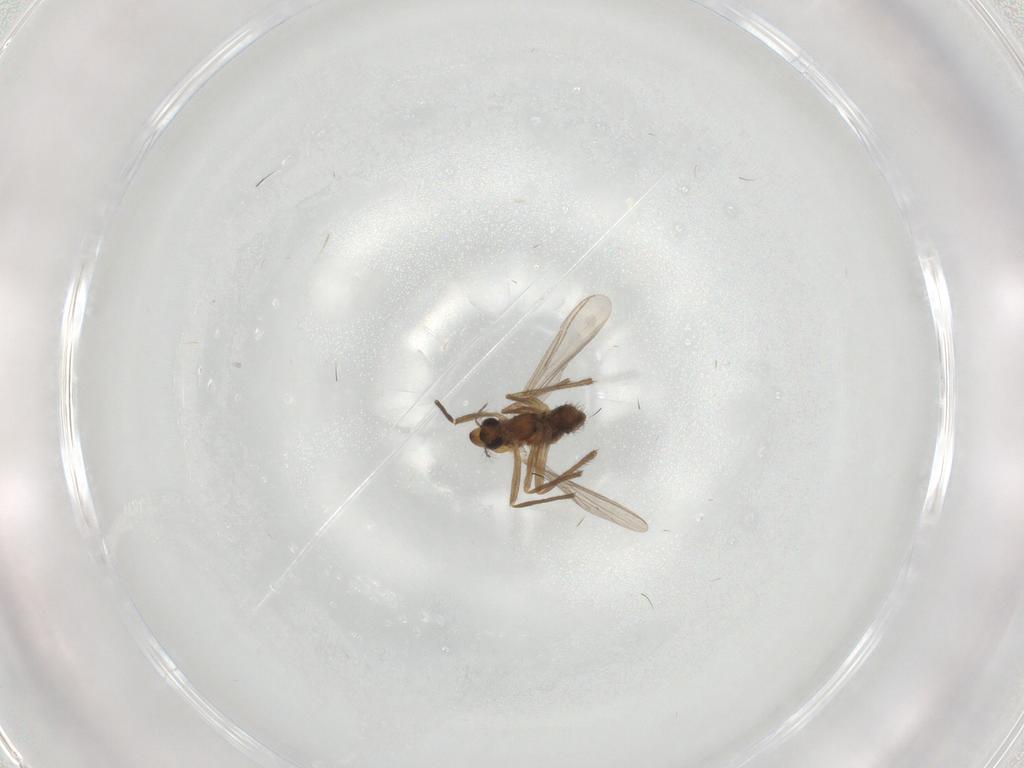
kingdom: Animalia
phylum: Arthropoda
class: Insecta
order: Diptera
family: Chironomidae
